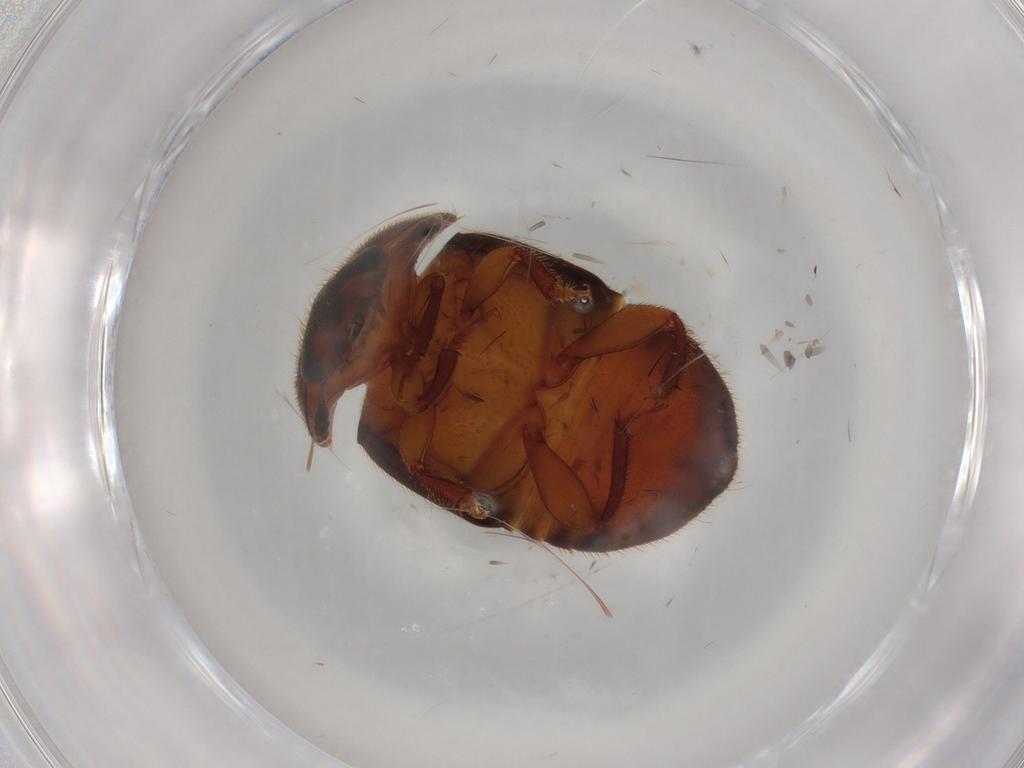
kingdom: Animalia
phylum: Arthropoda
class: Insecta
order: Coleoptera
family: Nitidulidae
